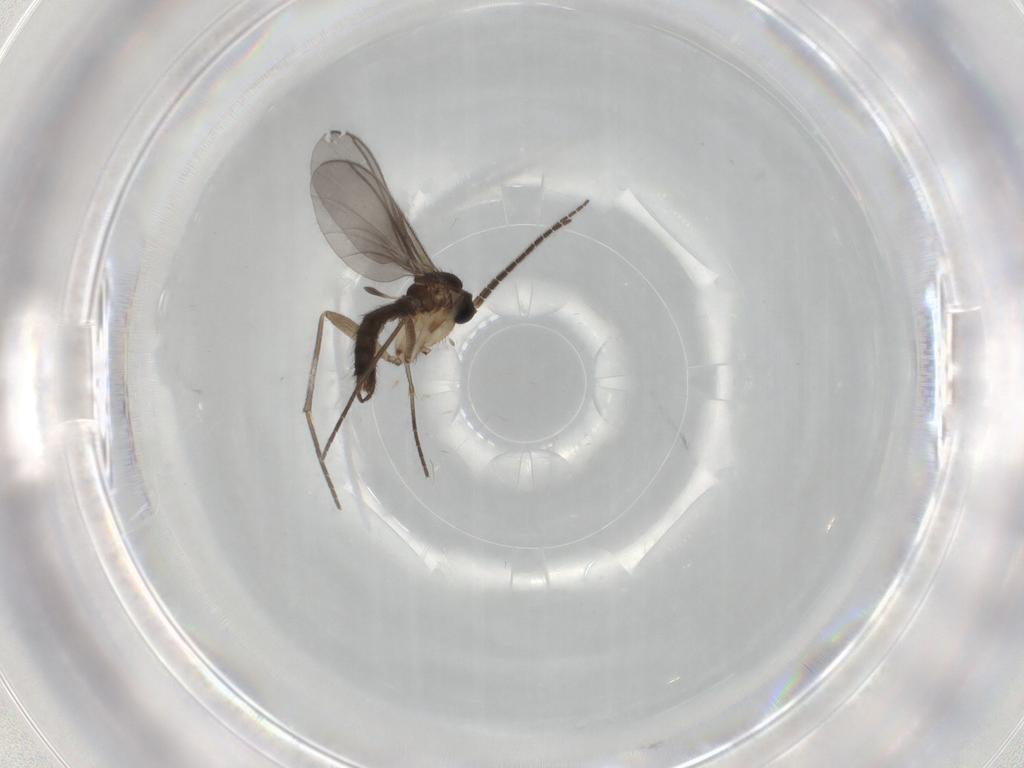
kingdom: Animalia
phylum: Arthropoda
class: Insecta
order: Diptera
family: Sciaridae
